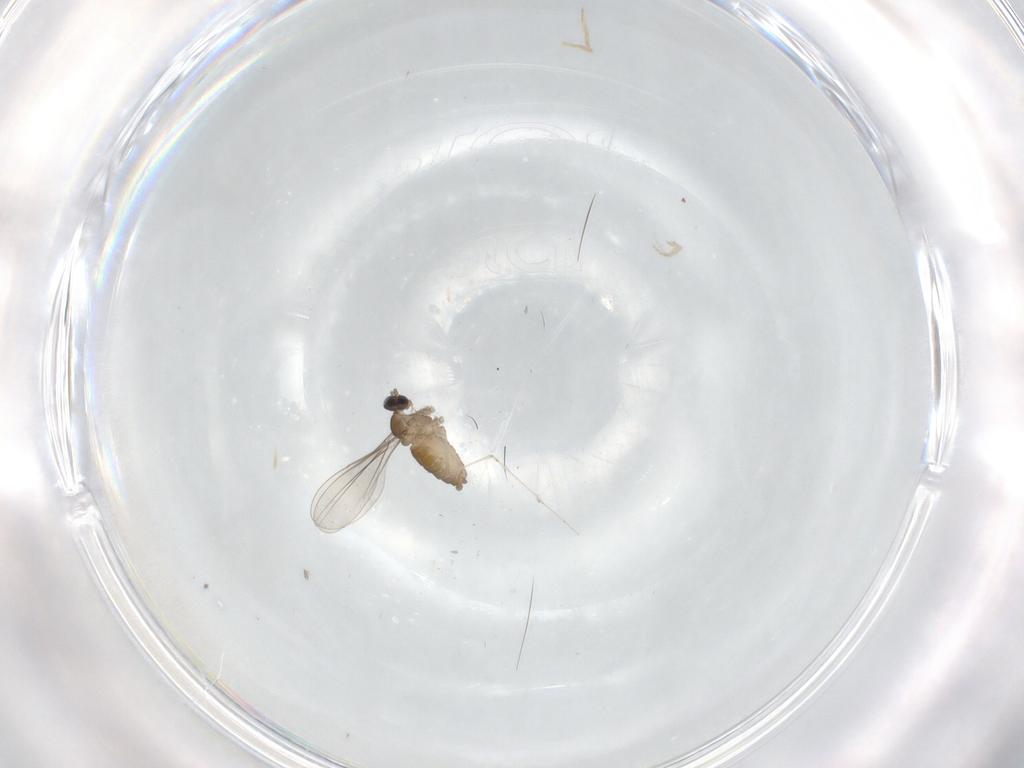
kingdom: Animalia
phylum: Arthropoda
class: Insecta
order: Diptera
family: Cecidomyiidae
